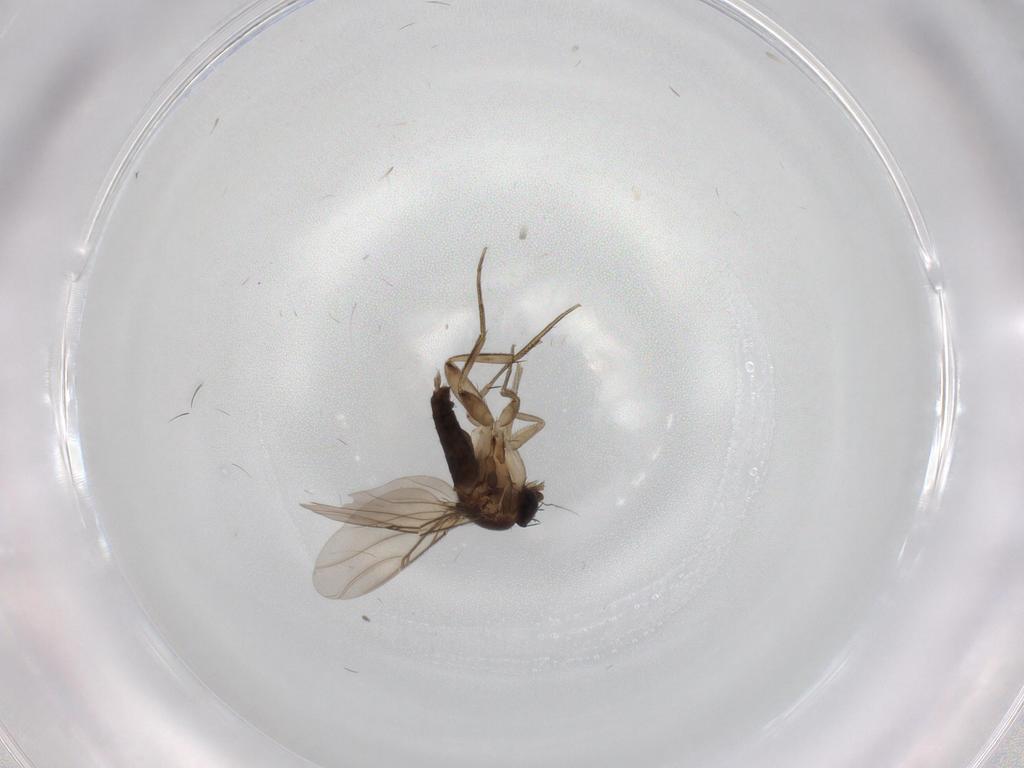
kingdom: Animalia
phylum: Arthropoda
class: Insecta
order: Diptera
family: Phoridae
